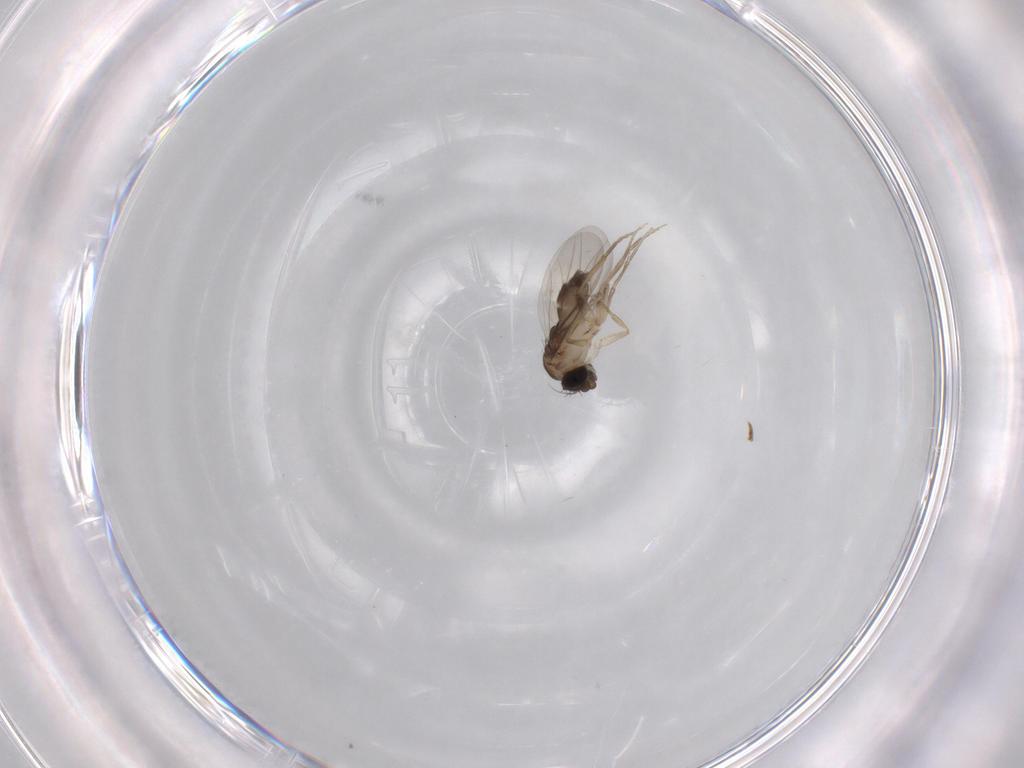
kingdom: Animalia
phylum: Arthropoda
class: Insecta
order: Diptera
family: Phoridae
